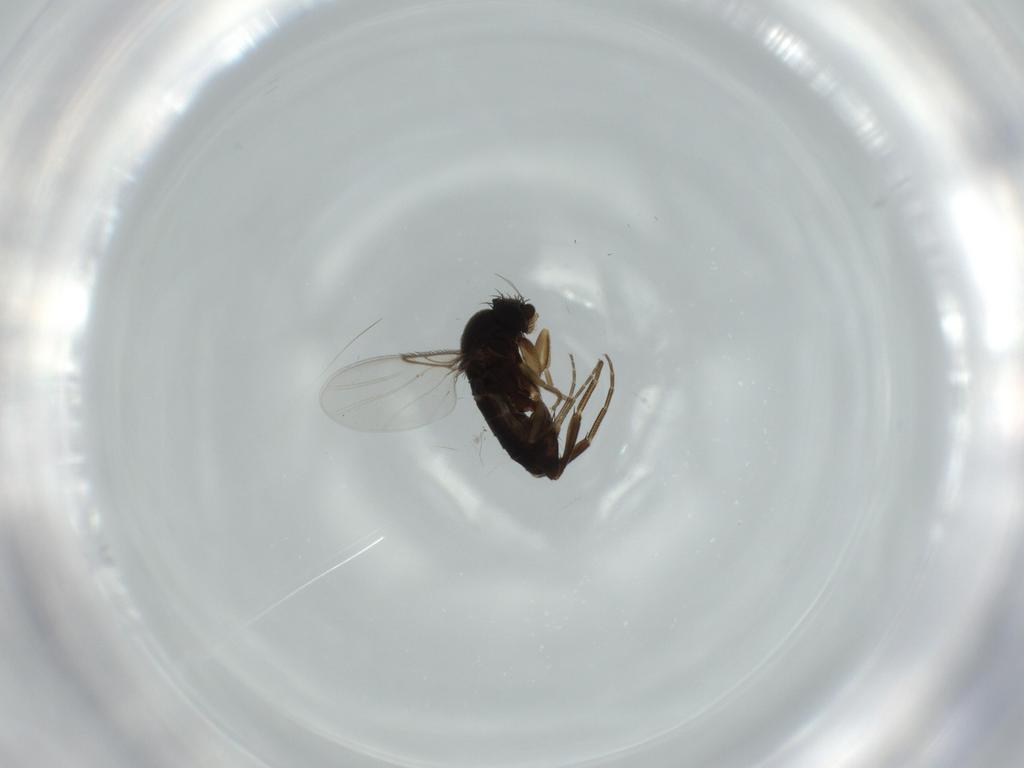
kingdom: Animalia
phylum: Arthropoda
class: Insecta
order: Diptera
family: Phoridae
